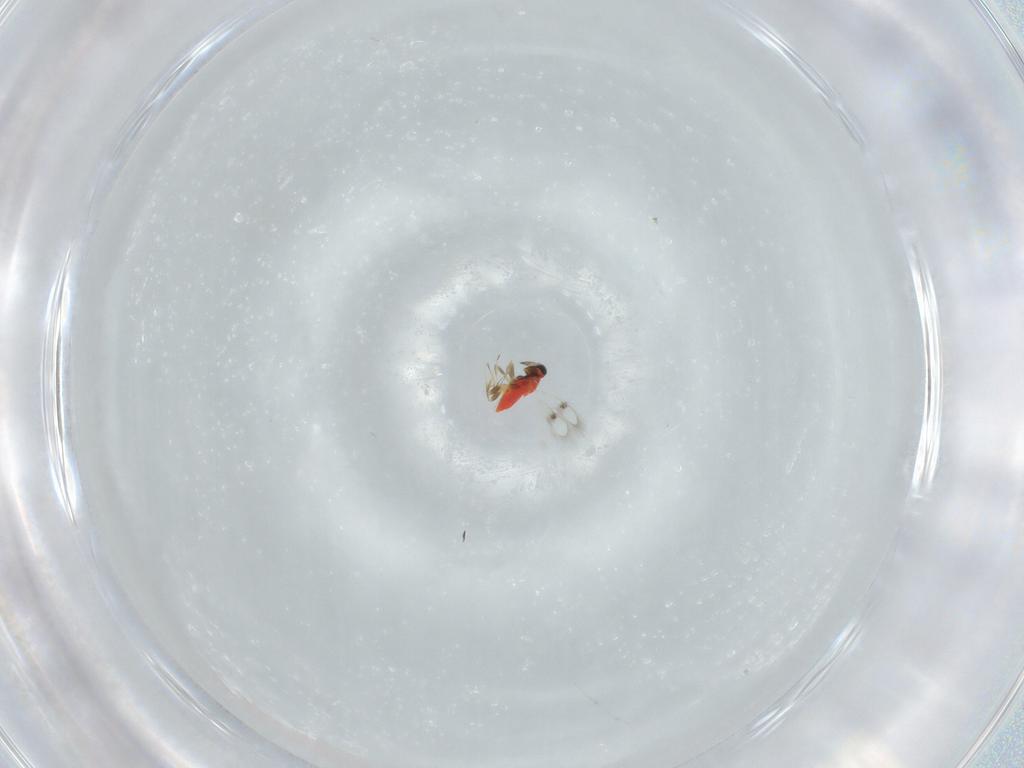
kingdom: Animalia
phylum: Arthropoda
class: Insecta
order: Hymenoptera
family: Trichogrammatidae
